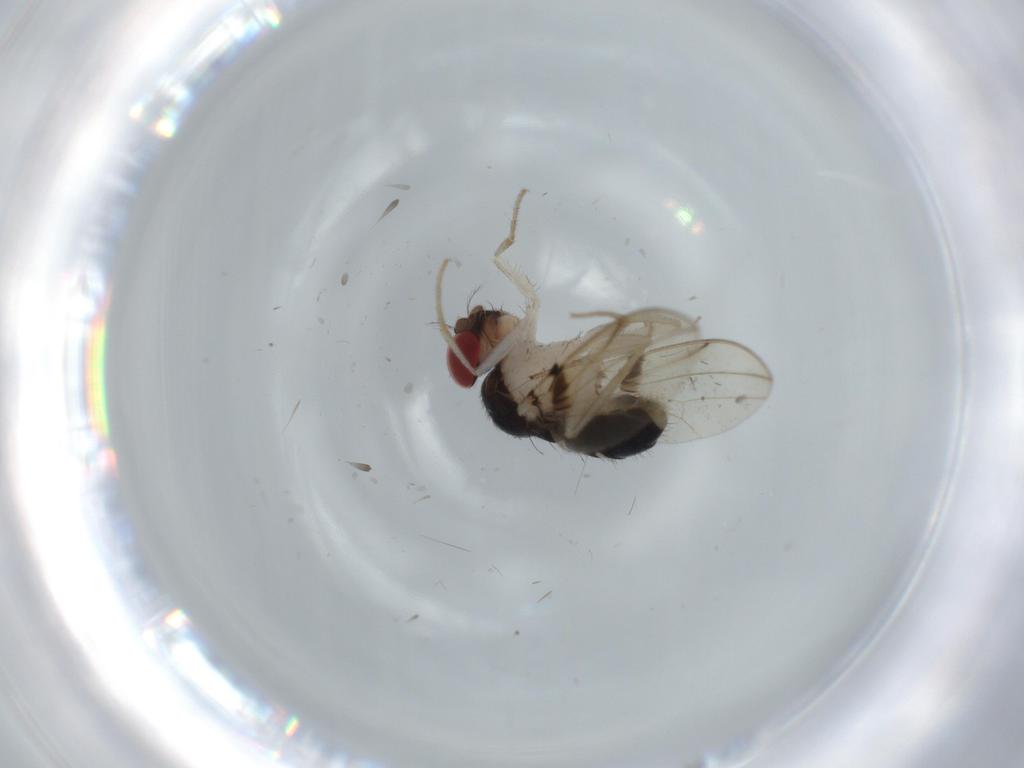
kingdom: Animalia
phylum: Arthropoda
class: Insecta
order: Diptera
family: Drosophilidae
